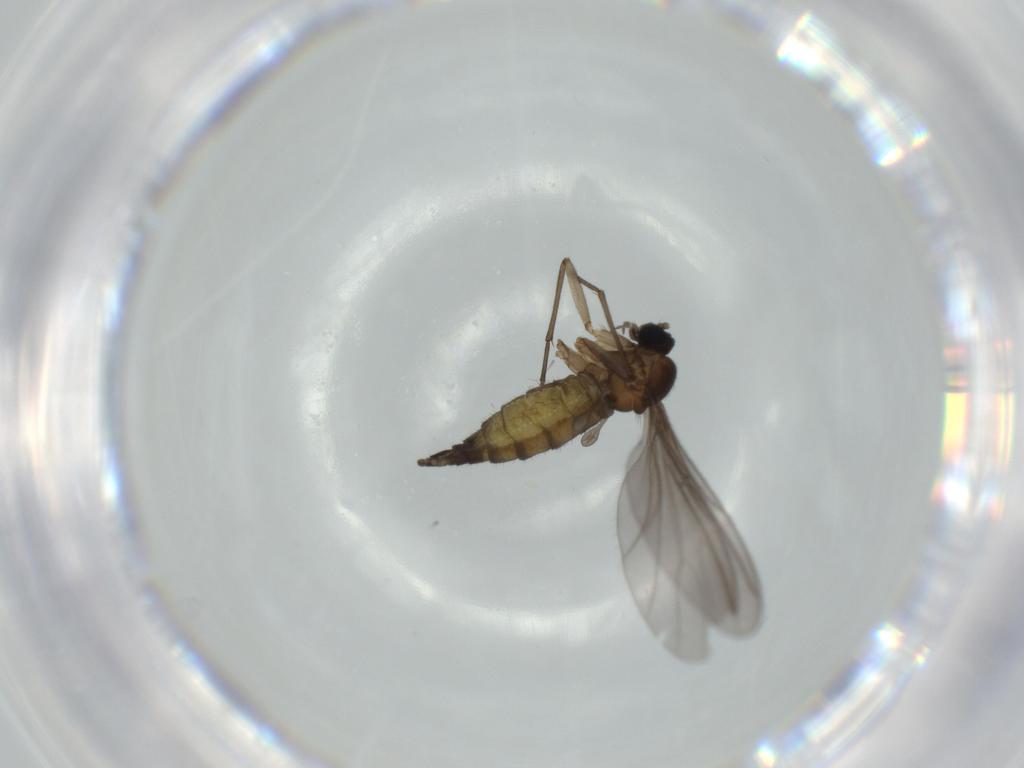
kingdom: Animalia
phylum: Arthropoda
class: Insecta
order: Diptera
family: Sciaridae
